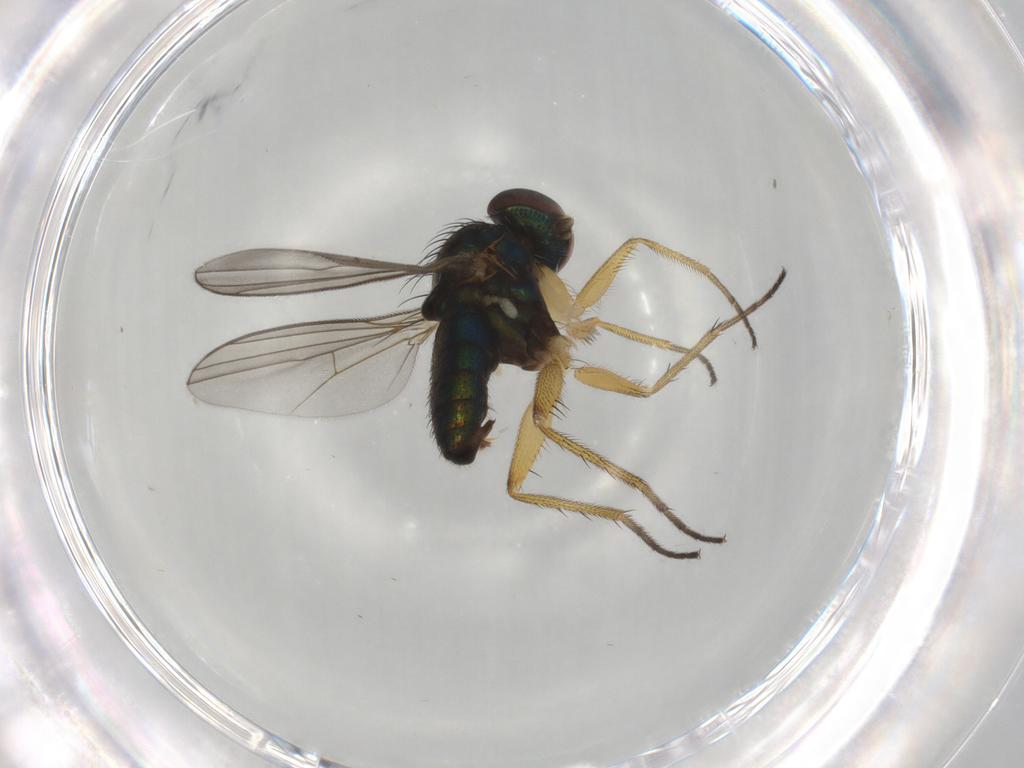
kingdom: Animalia
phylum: Arthropoda
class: Insecta
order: Diptera
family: Dolichopodidae
